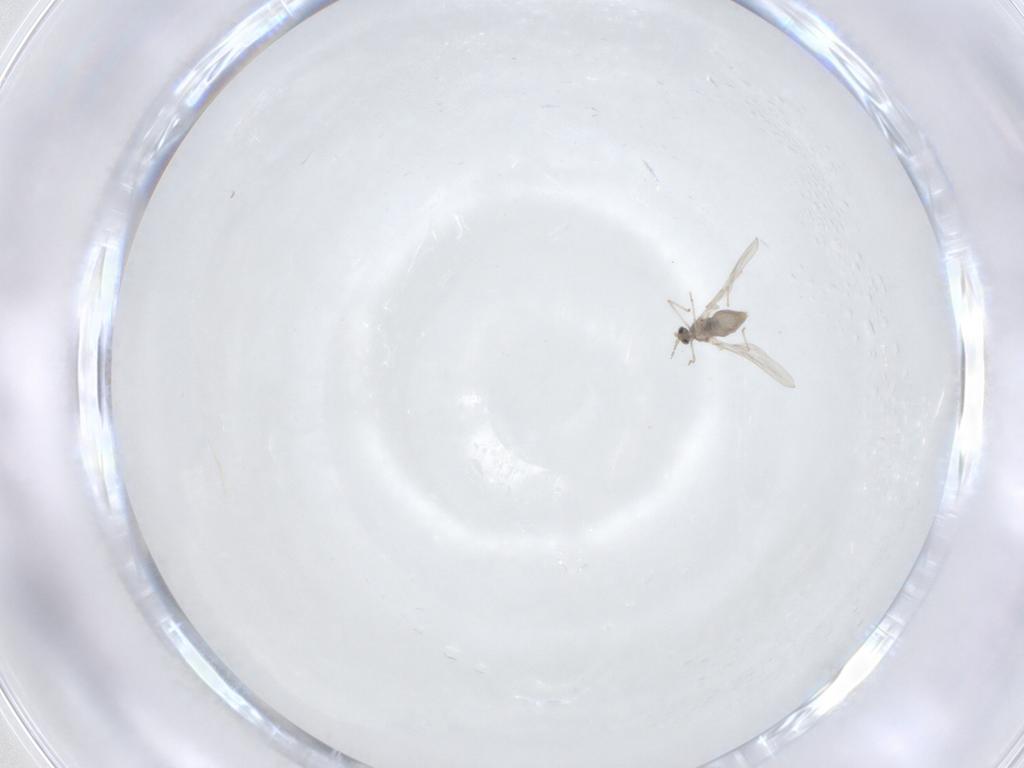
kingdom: Animalia
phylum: Arthropoda
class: Insecta
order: Diptera
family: Cecidomyiidae
